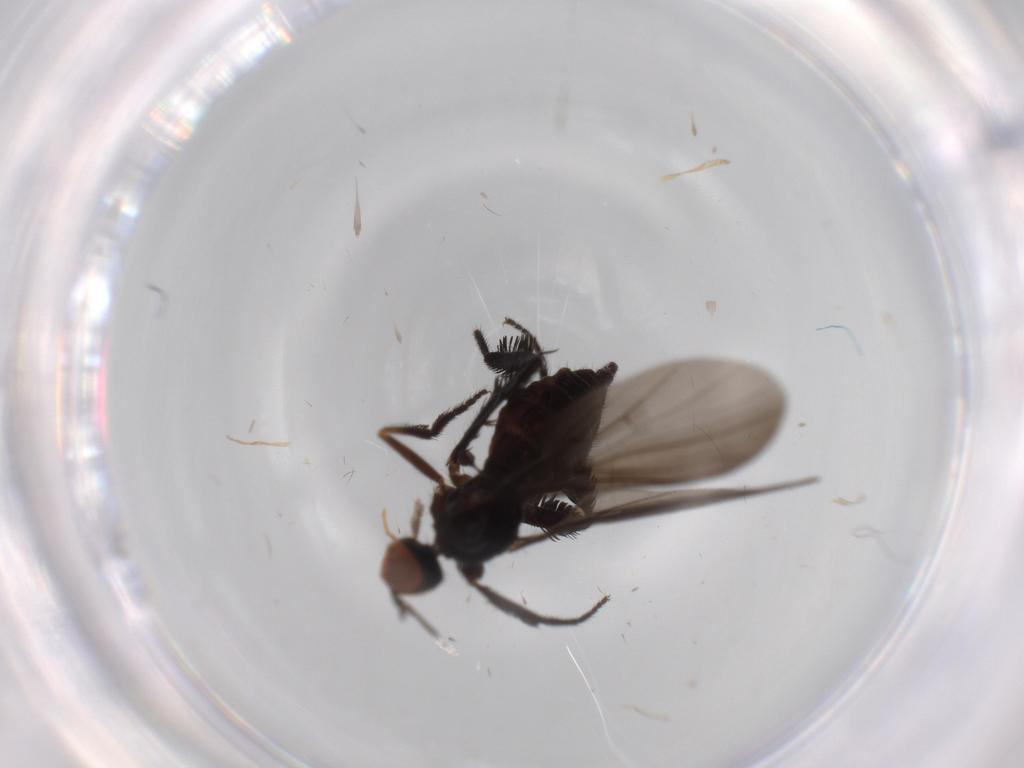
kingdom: Animalia
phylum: Arthropoda
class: Insecta
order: Diptera
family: Empididae
